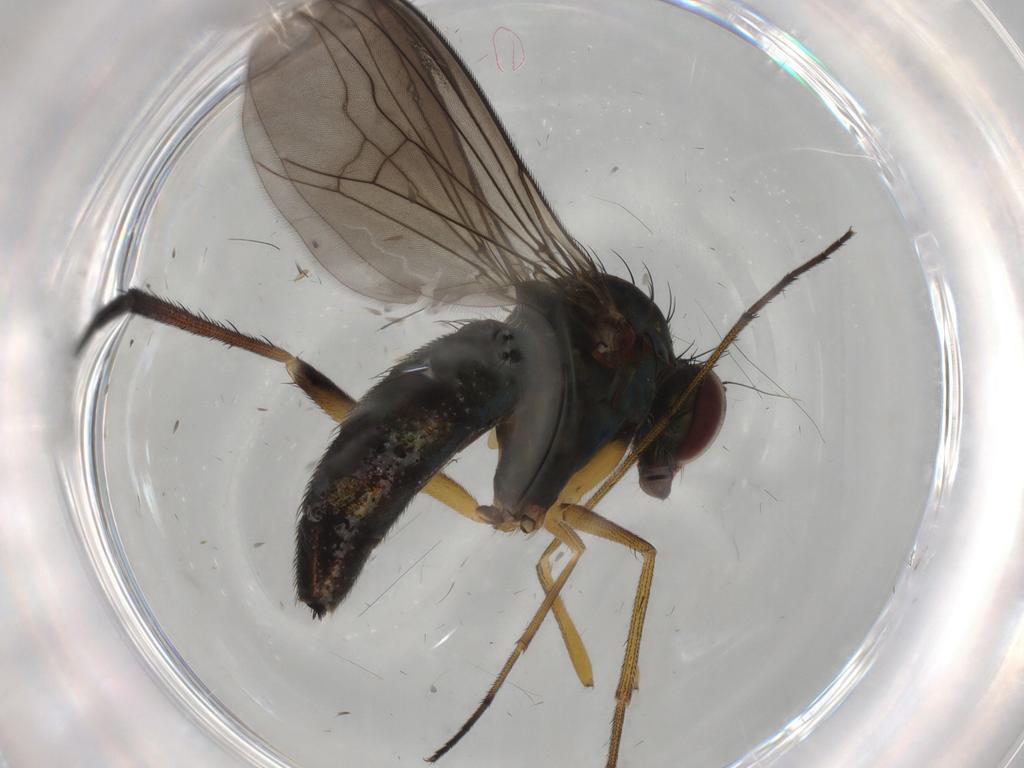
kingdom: Animalia
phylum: Arthropoda
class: Insecta
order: Diptera
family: Dolichopodidae
